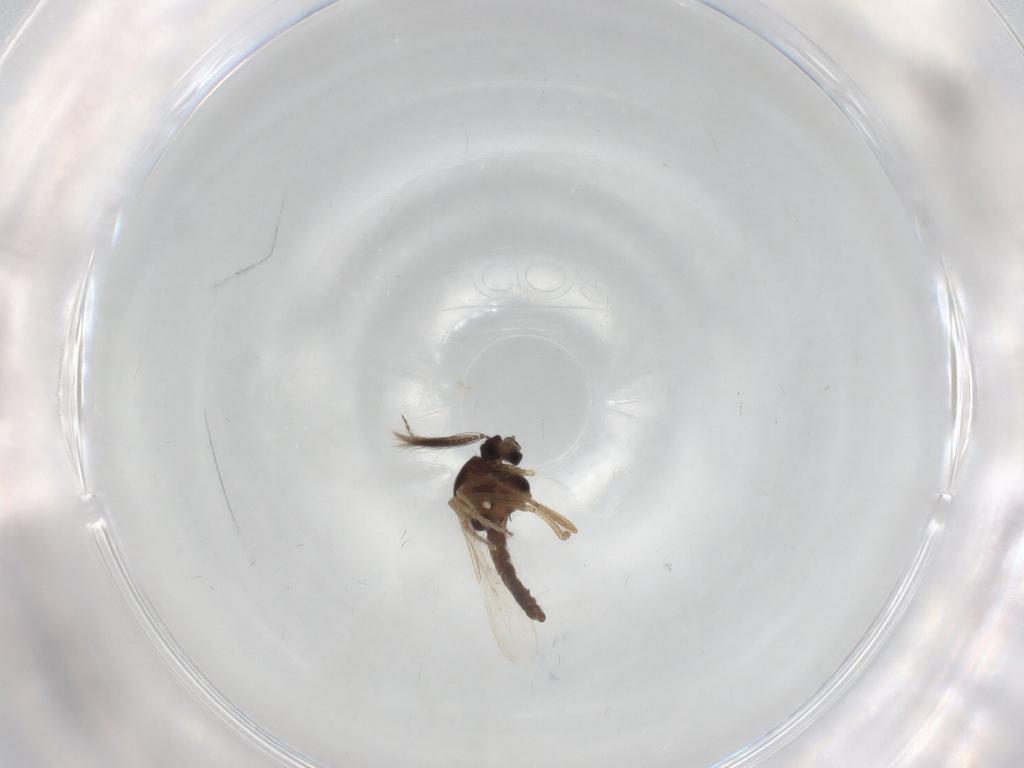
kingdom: Animalia
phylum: Arthropoda
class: Insecta
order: Diptera
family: Ceratopogonidae
